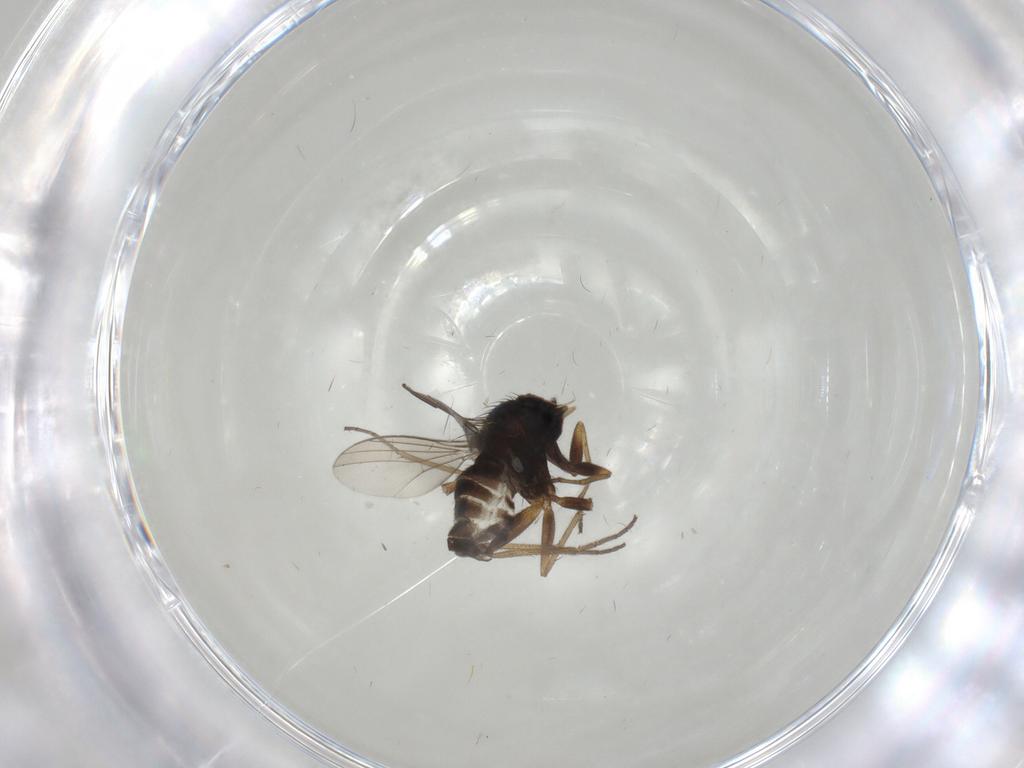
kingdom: Animalia
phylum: Arthropoda
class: Insecta
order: Diptera
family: Dolichopodidae
